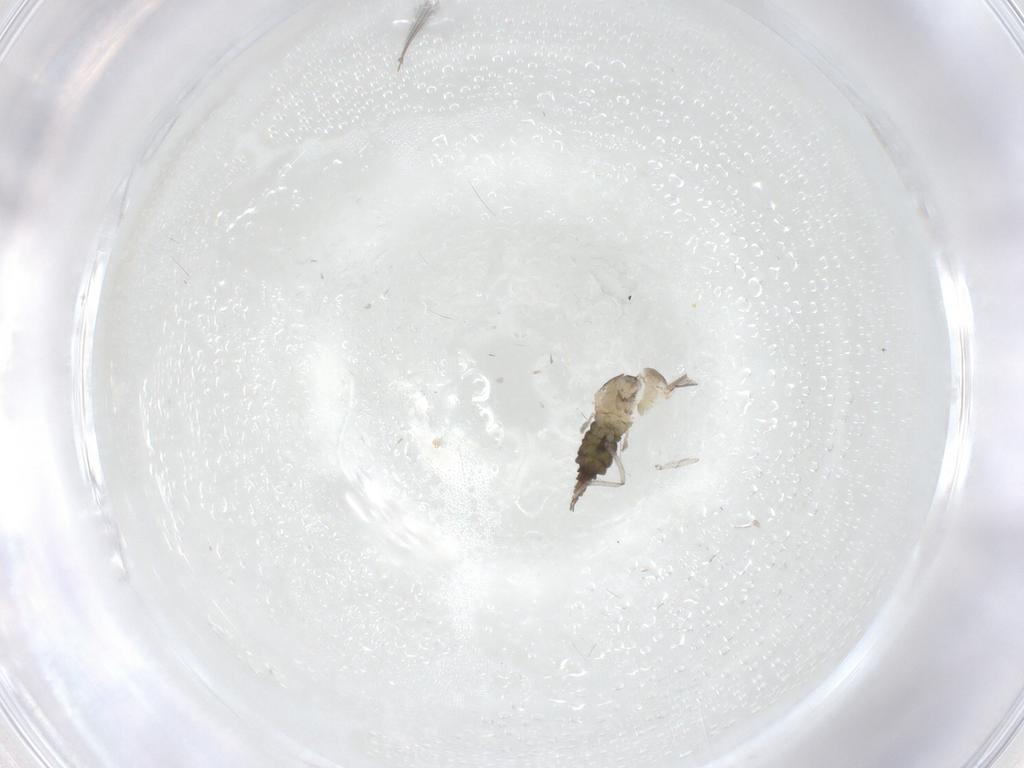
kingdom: Animalia
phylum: Arthropoda
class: Insecta
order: Diptera
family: Cecidomyiidae
